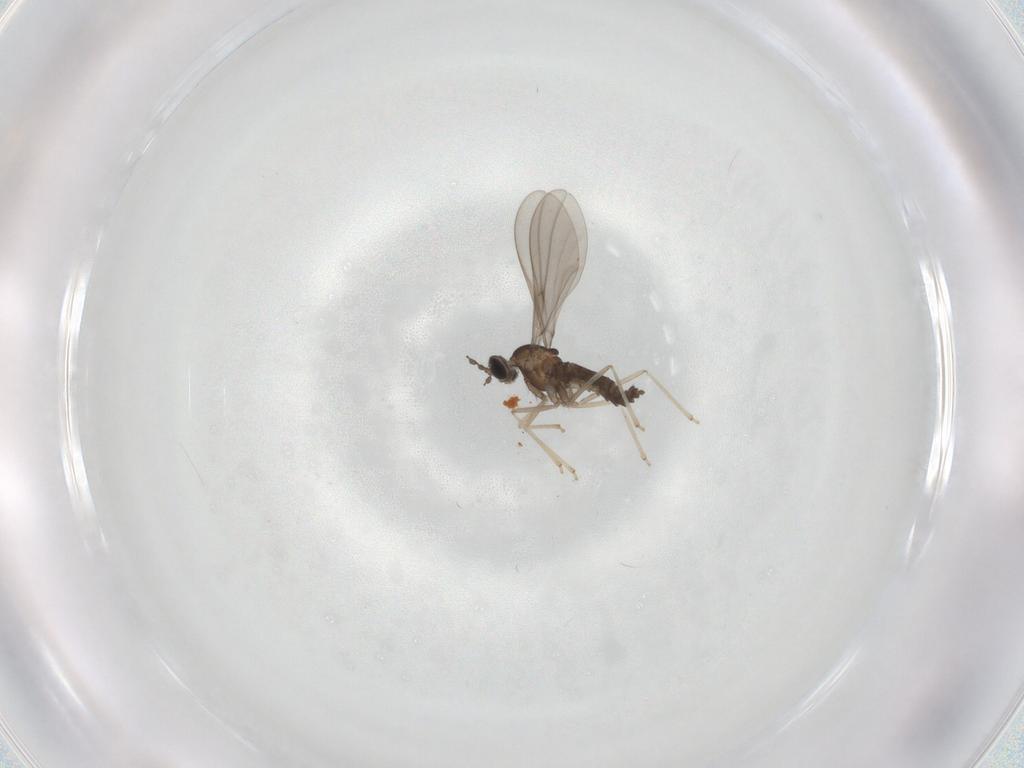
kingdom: Animalia
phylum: Arthropoda
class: Insecta
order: Diptera
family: Cecidomyiidae
